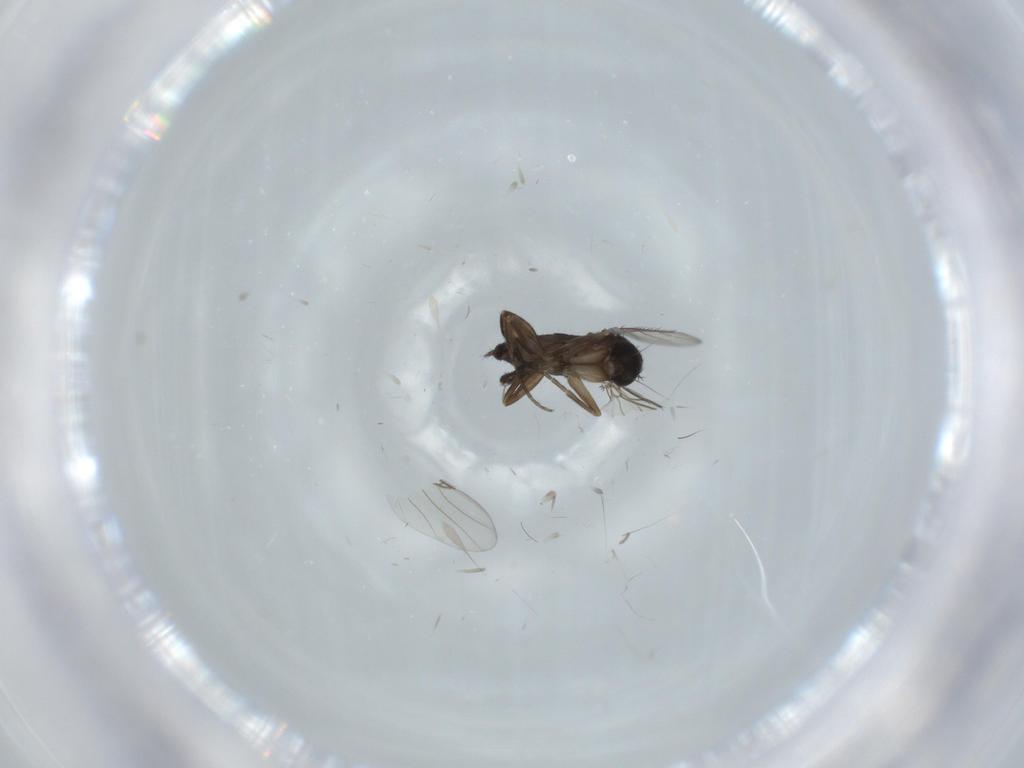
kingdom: Animalia
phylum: Arthropoda
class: Insecta
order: Diptera
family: Phoridae
